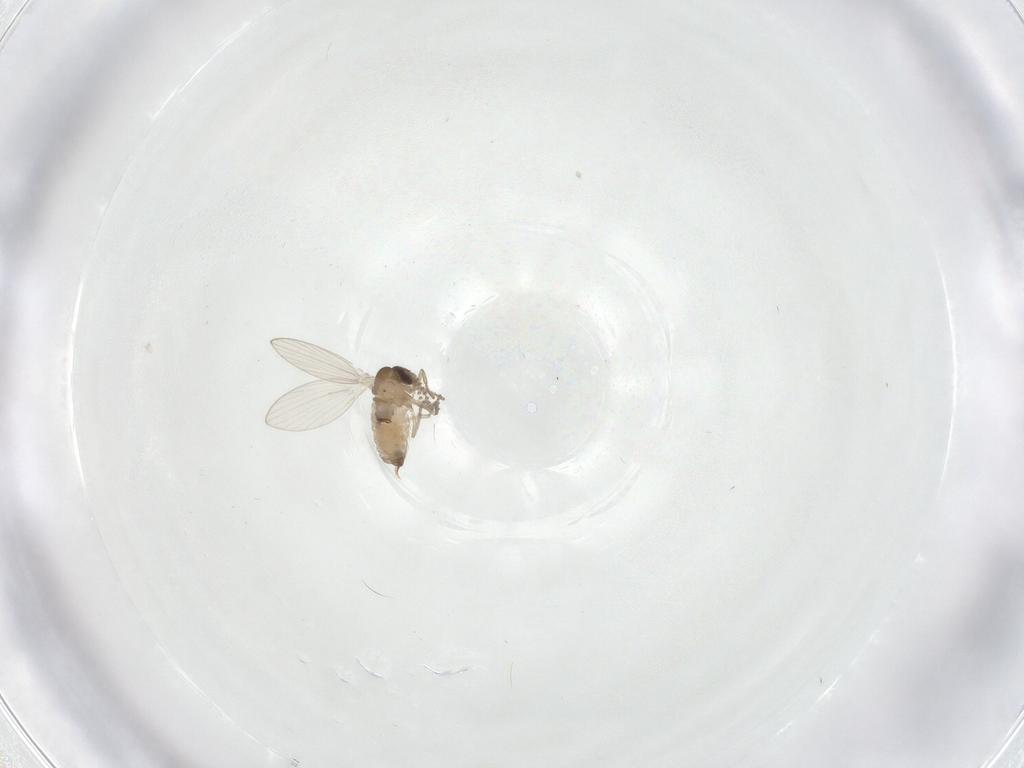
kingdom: Animalia
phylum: Arthropoda
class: Insecta
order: Diptera
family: Psychodidae
